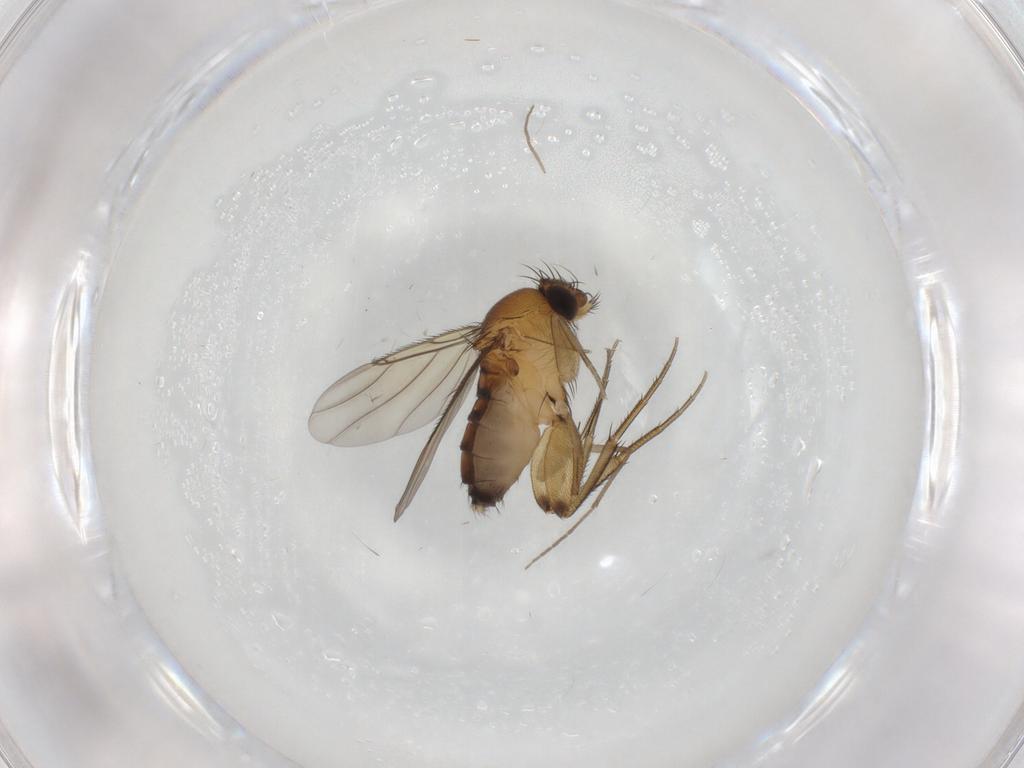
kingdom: Animalia
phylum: Arthropoda
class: Insecta
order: Diptera
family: Chironomidae
